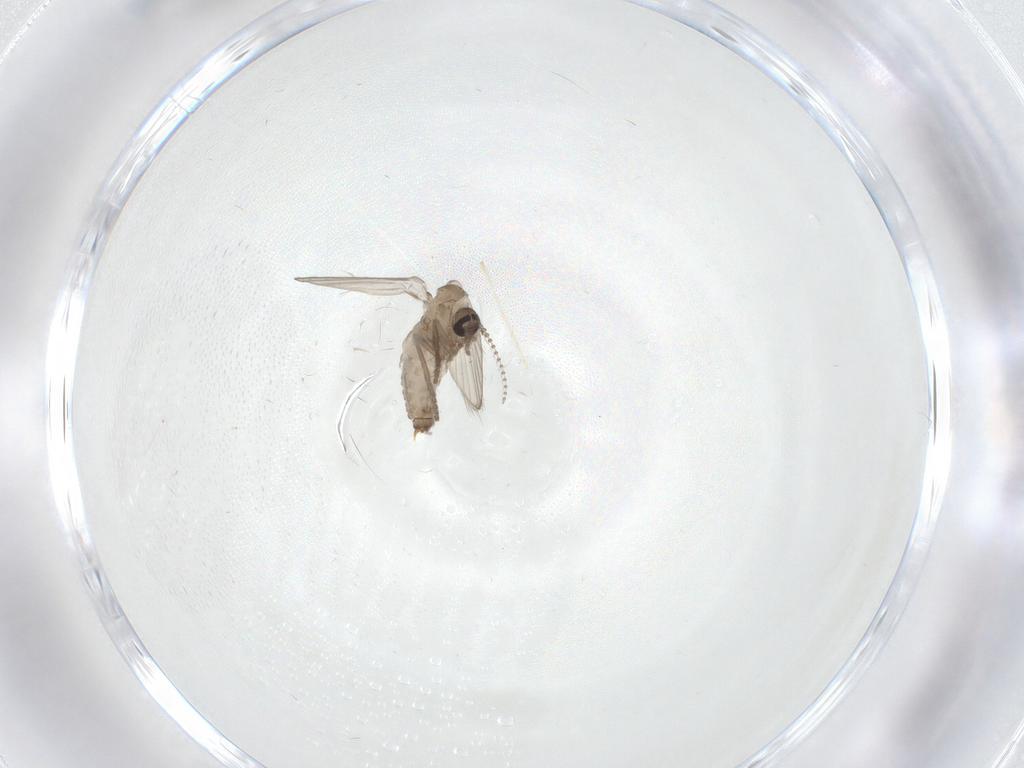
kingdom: Animalia
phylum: Arthropoda
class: Insecta
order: Diptera
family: Psychodidae
